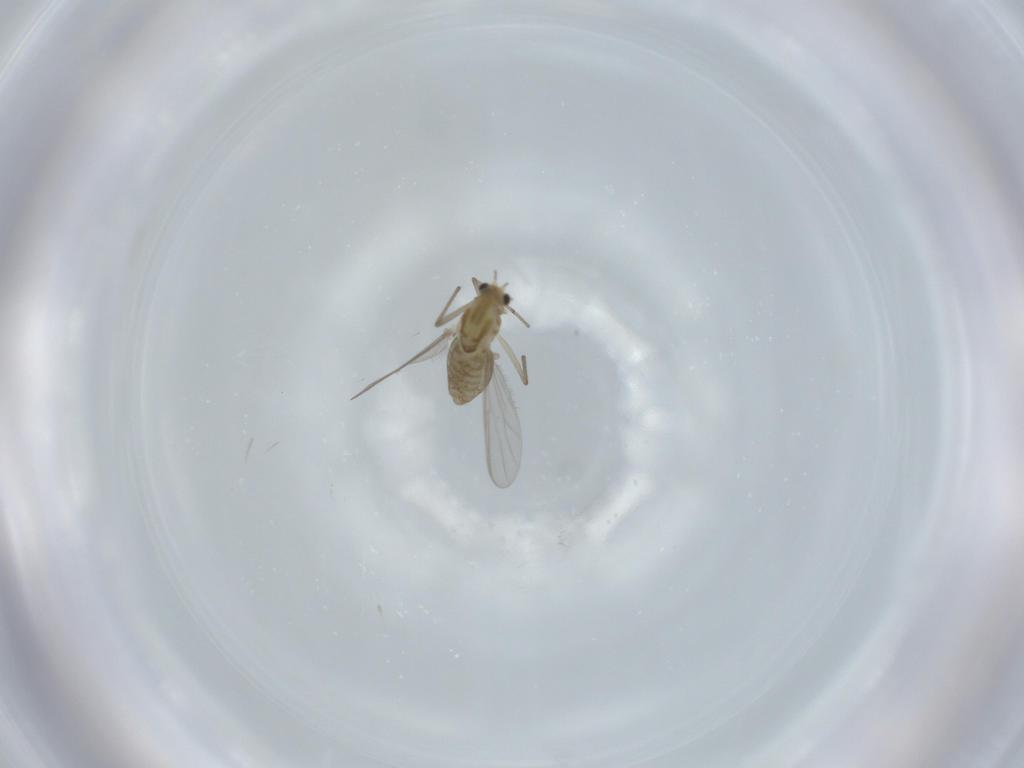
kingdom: Animalia
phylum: Arthropoda
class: Insecta
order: Diptera
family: Chironomidae
